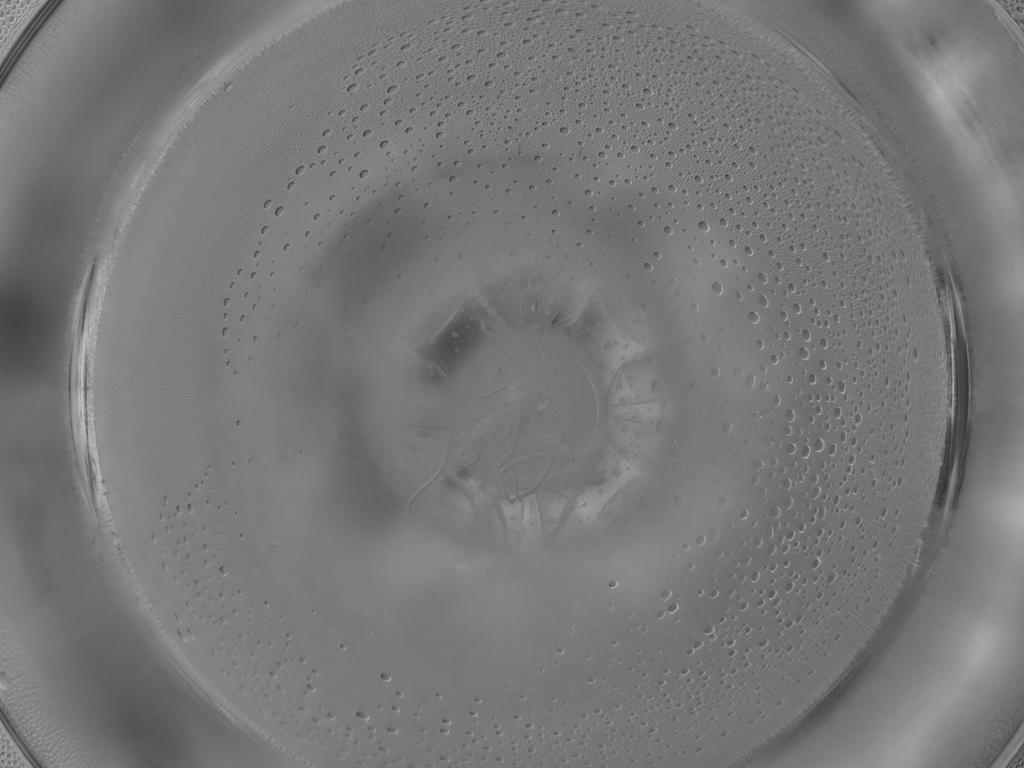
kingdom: Animalia
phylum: Arthropoda
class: Insecta
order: Diptera
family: Sciaridae
